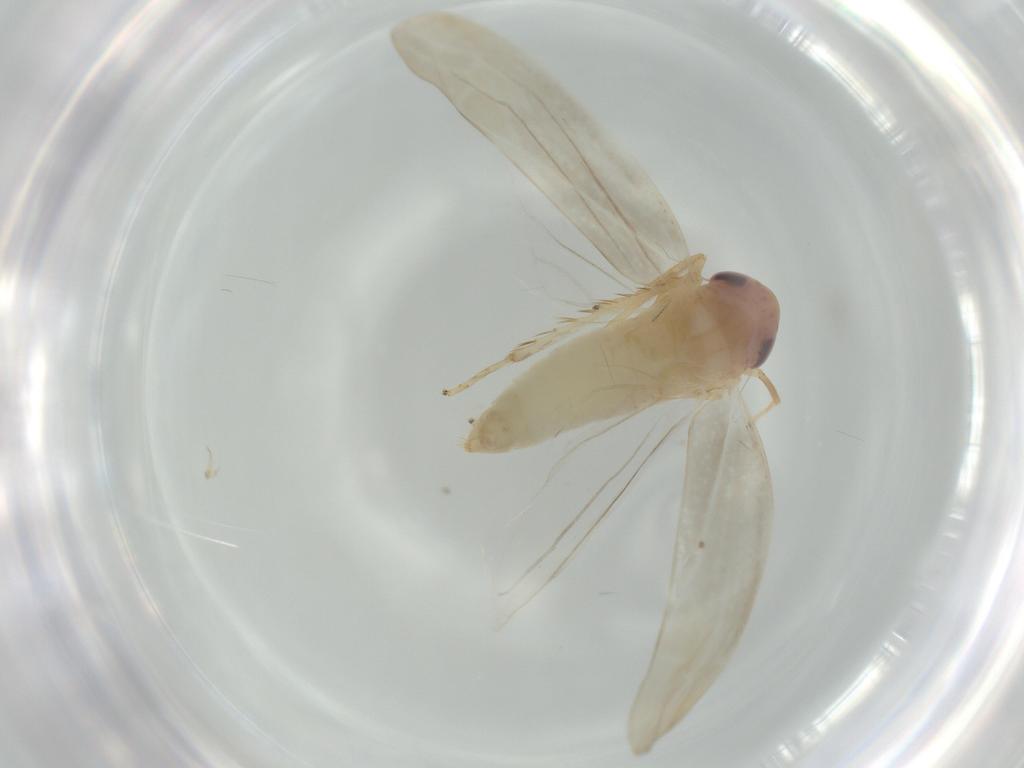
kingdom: Animalia
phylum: Arthropoda
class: Insecta
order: Hemiptera
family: Cicadellidae
